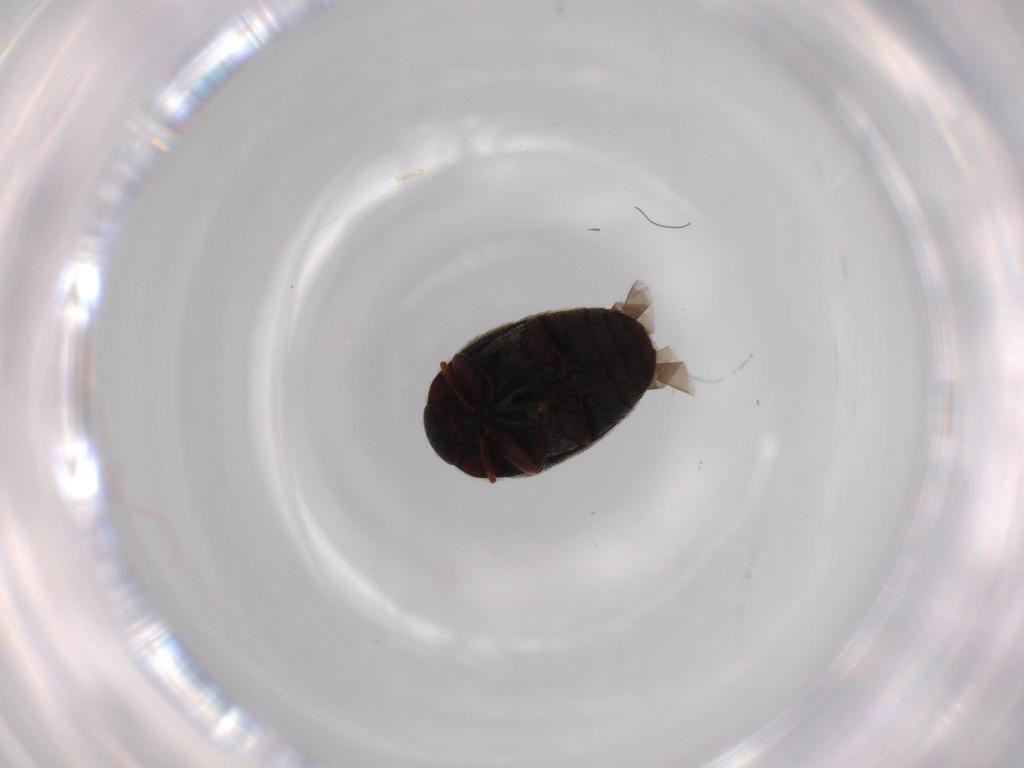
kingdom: Animalia
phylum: Arthropoda
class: Insecta
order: Coleoptera
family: Dermestidae
